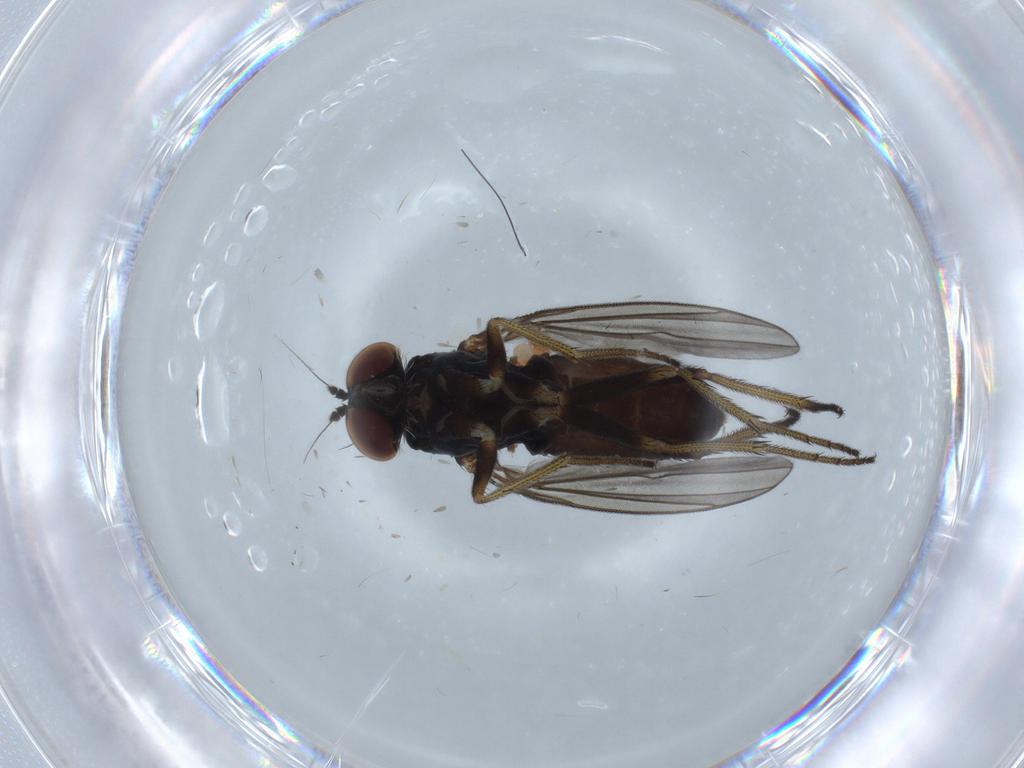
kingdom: Animalia
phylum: Arthropoda
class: Insecta
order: Diptera
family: Cecidomyiidae
